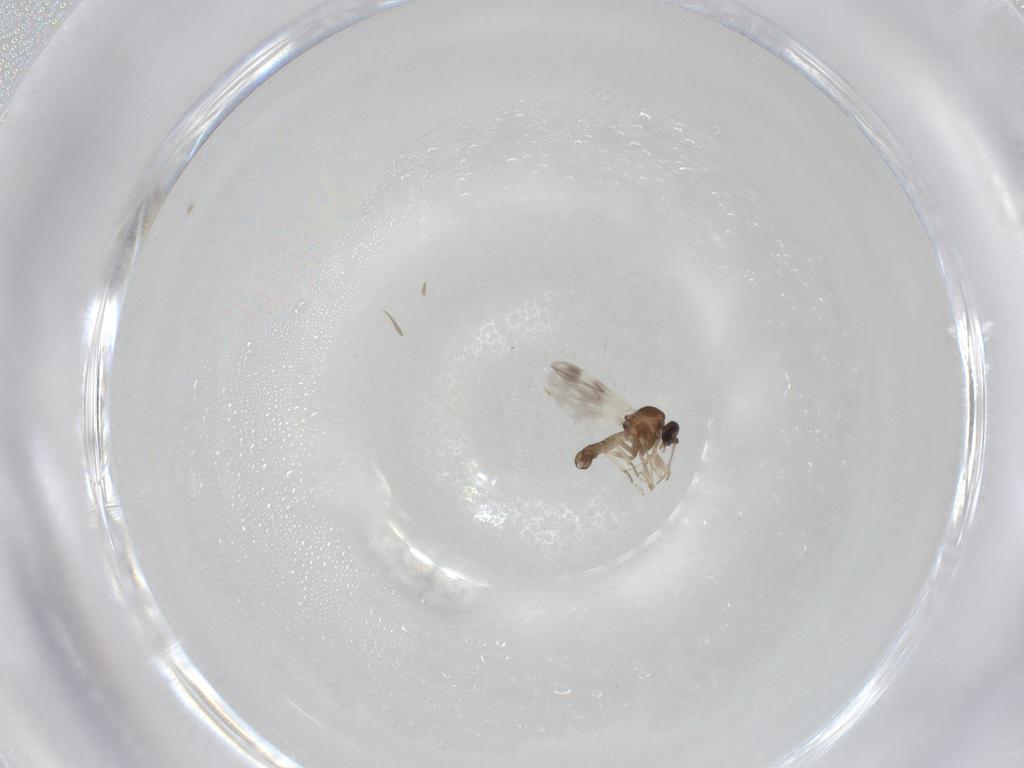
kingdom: Animalia
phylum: Arthropoda
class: Insecta
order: Diptera
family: Ceratopogonidae
